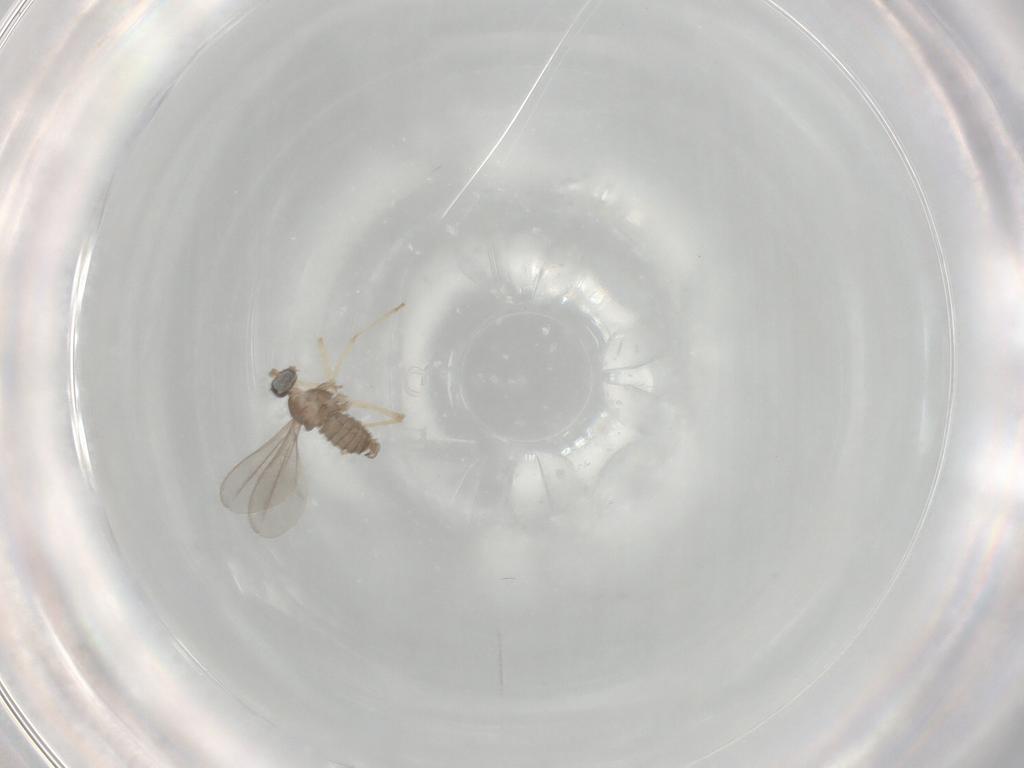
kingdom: Animalia
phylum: Arthropoda
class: Insecta
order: Diptera
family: Cecidomyiidae
